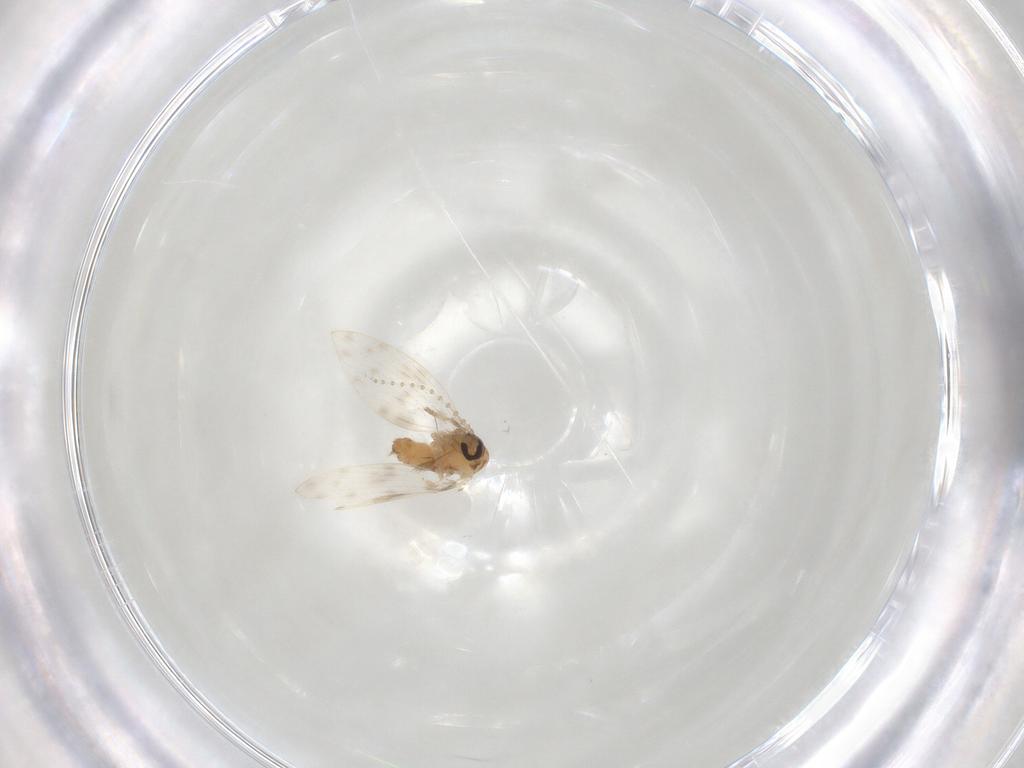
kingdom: Animalia
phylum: Arthropoda
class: Insecta
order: Diptera
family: Psychodidae
